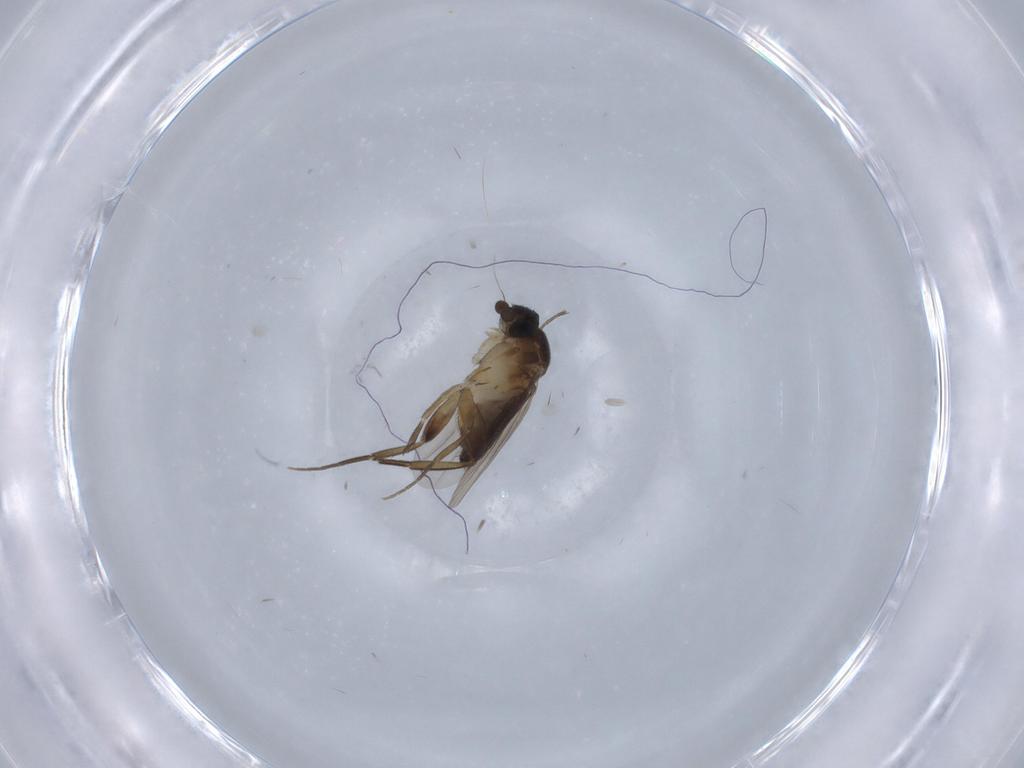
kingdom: Animalia
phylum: Arthropoda
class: Insecta
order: Diptera
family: Phoridae
